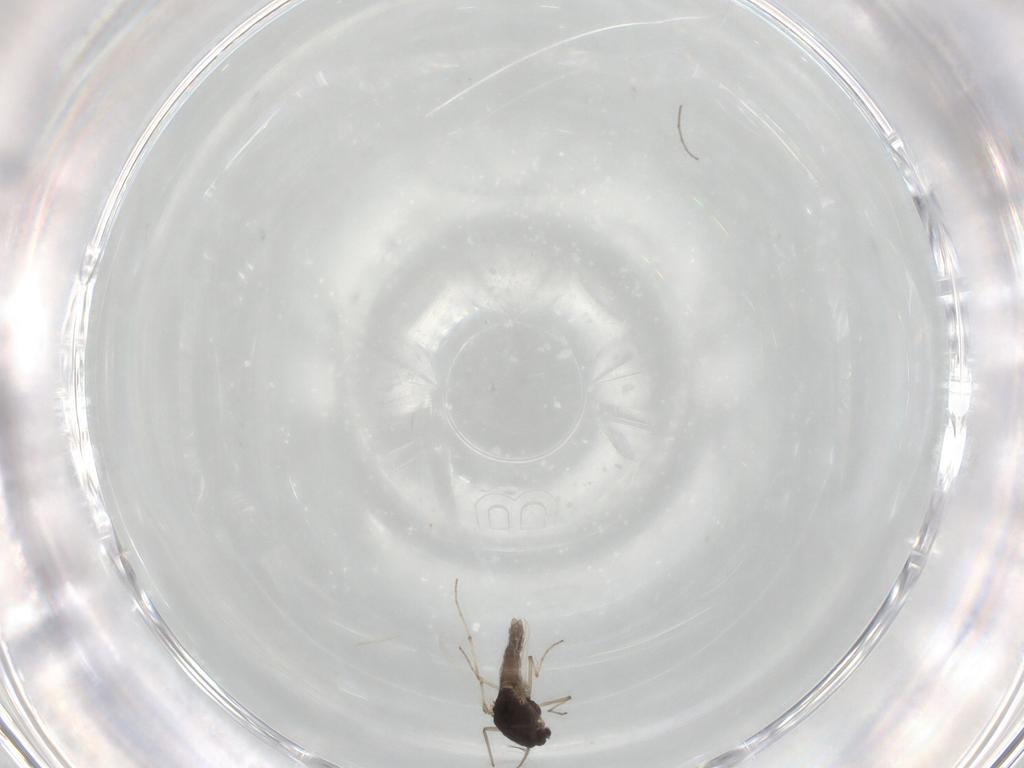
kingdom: Animalia
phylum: Arthropoda
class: Insecta
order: Diptera
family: Chironomidae
